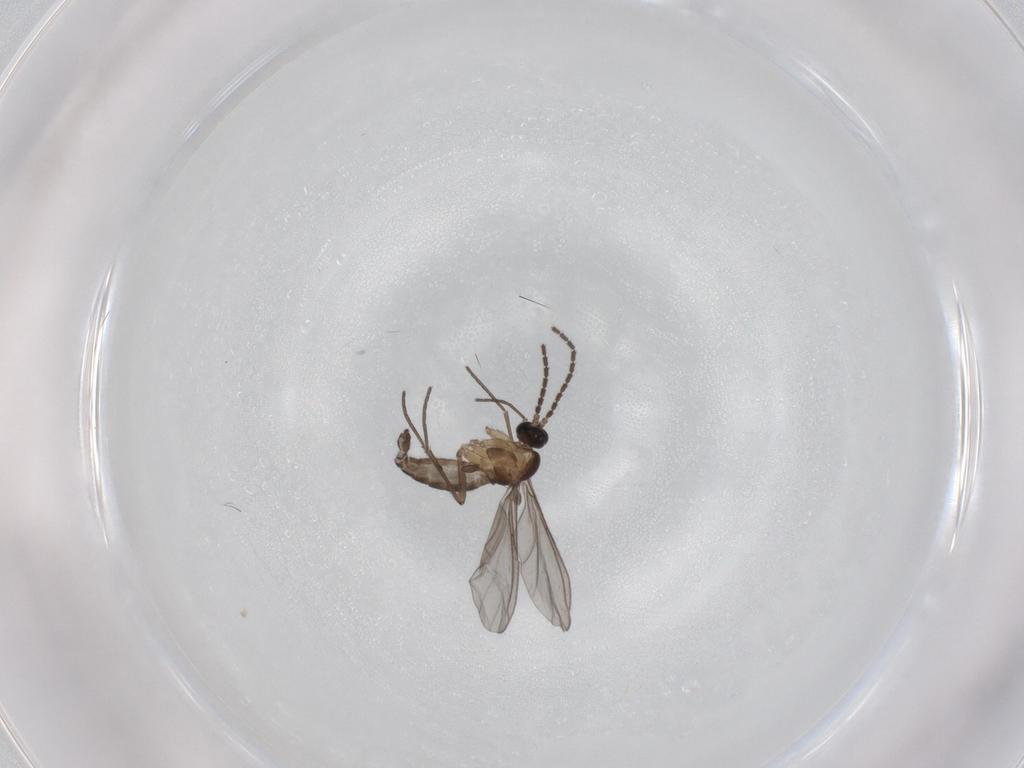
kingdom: Animalia
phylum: Arthropoda
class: Insecta
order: Diptera
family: Sciaridae
